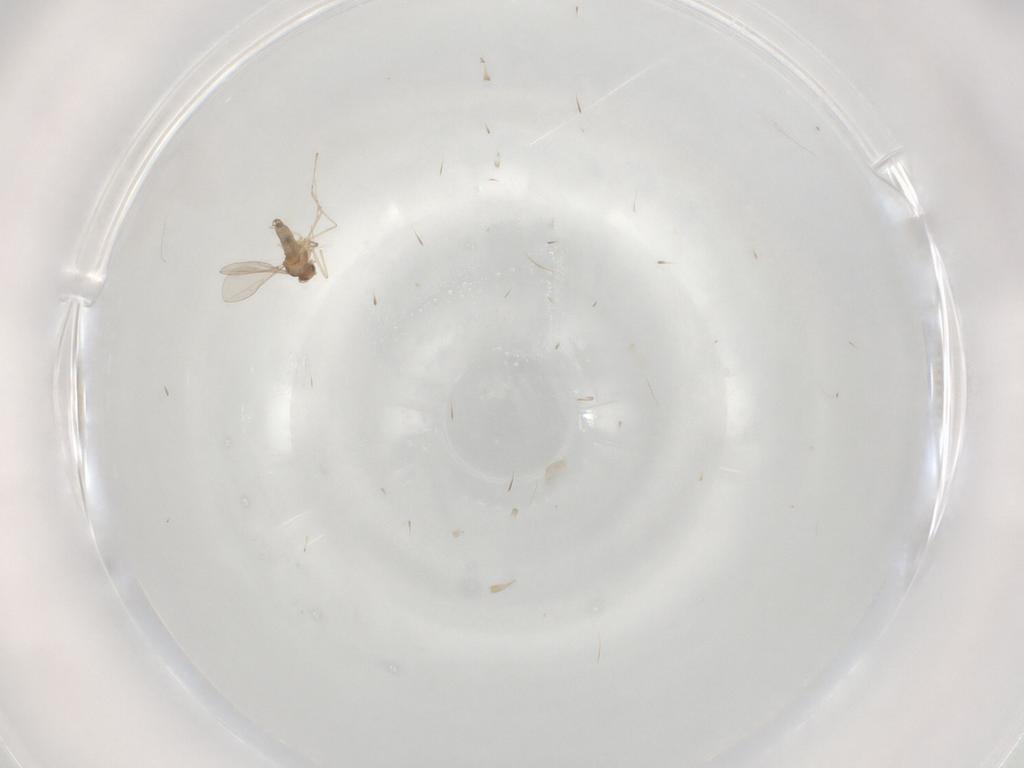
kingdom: Animalia
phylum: Arthropoda
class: Insecta
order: Diptera
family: Cecidomyiidae
